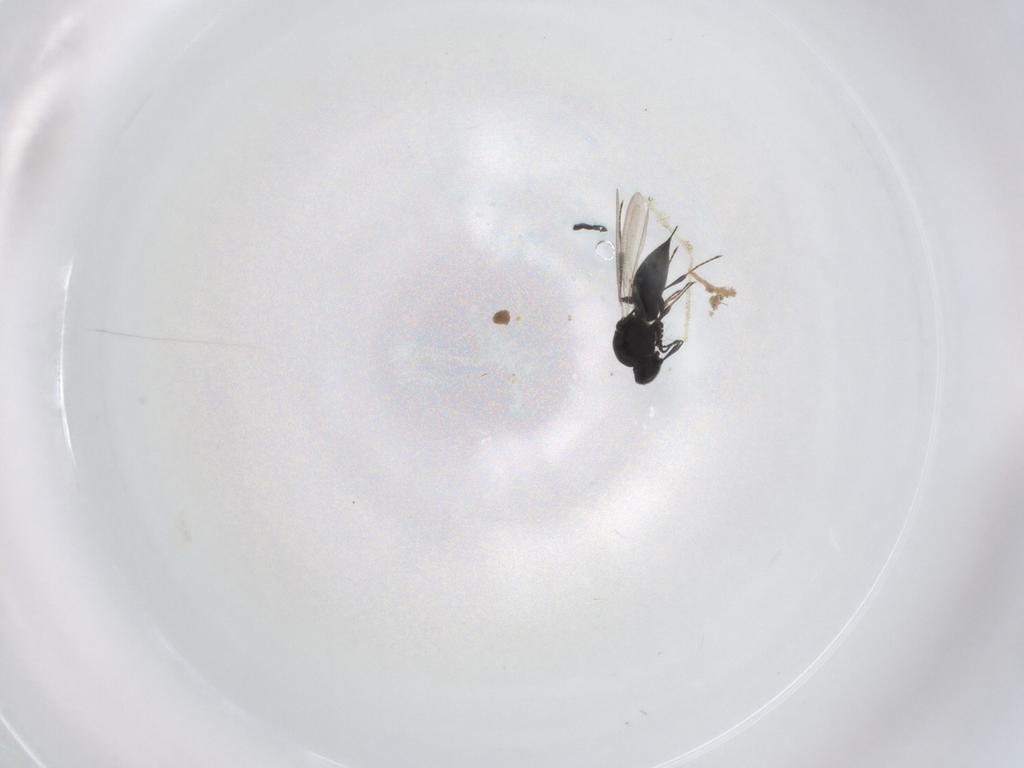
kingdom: Animalia
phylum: Arthropoda
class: Insecta
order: Hymenoptera
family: Platygastridae
